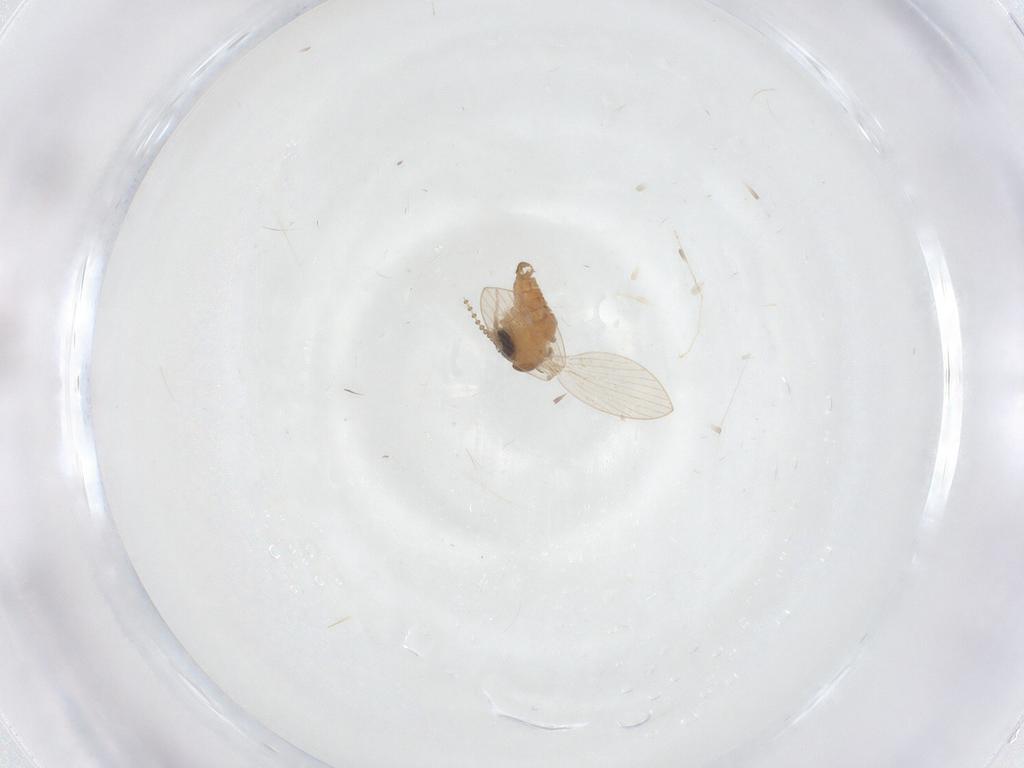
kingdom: Animalia
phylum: Arthropoda
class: Insecta
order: Diptera
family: Psychodidae
